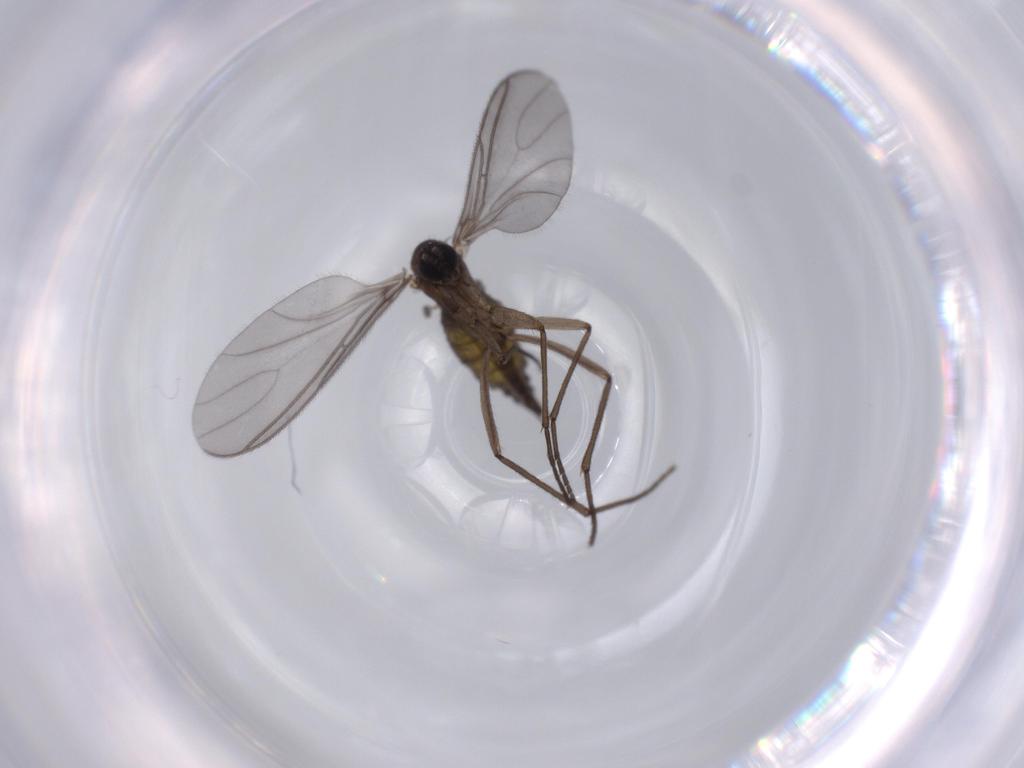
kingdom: Animalia
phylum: Arthropoda
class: Insecta
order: Diptera
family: Sciaridae
